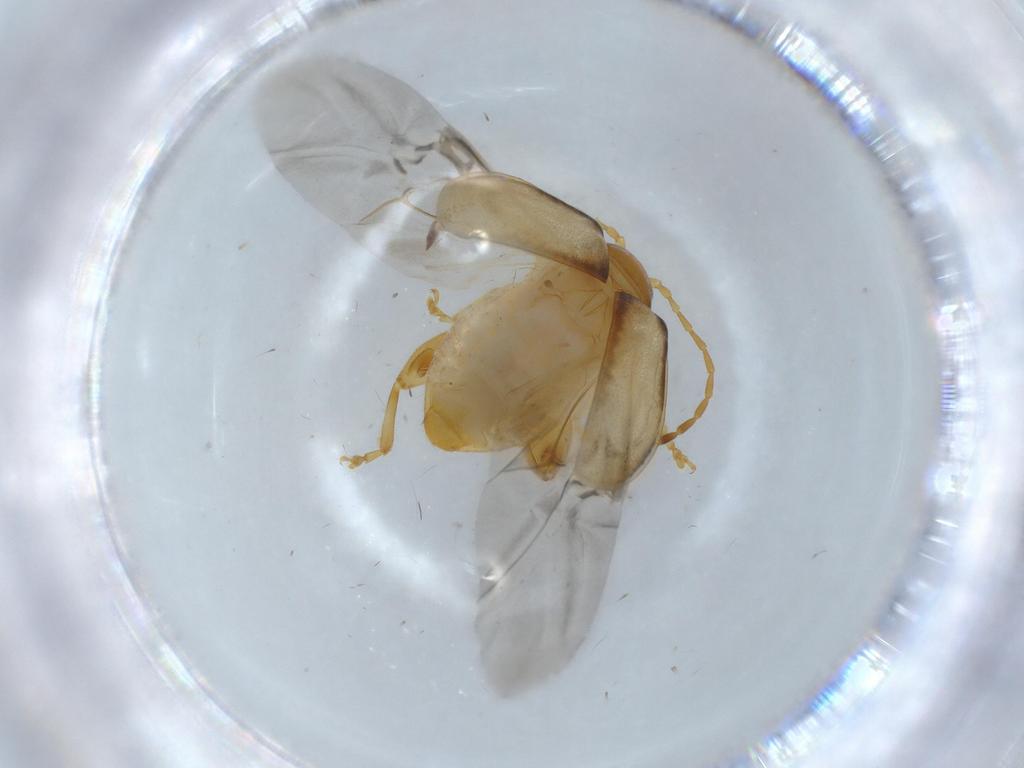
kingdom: Animalia
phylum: Arthropoda
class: Insecta
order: Coleoptera
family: Chrysomelidae
